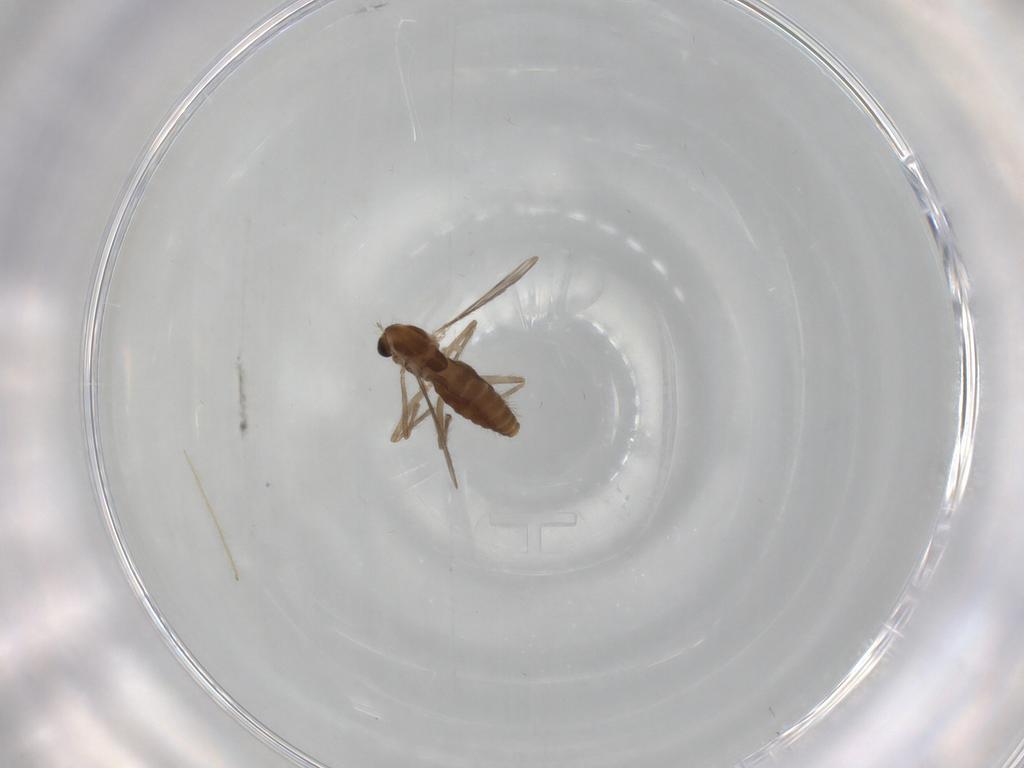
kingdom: Animalia
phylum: Arthropoda
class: Insecta
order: Diptera
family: Chironomidae
